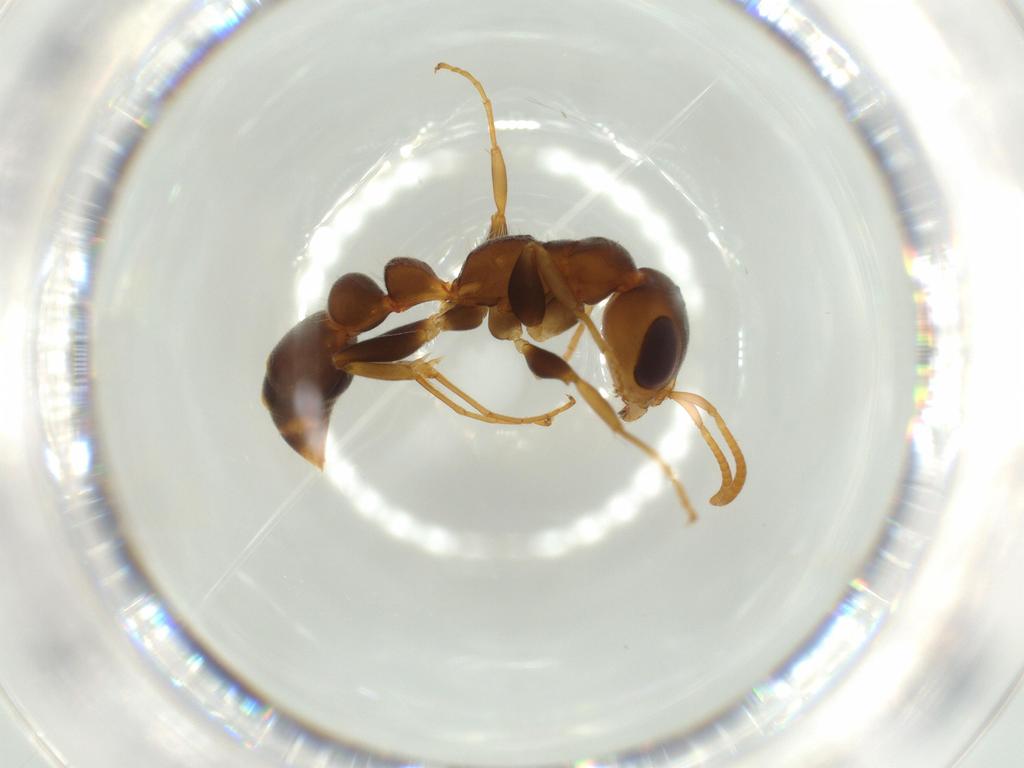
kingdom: Animalia
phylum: Arthropoda
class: Insecta
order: Hymenoptera
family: Formicidae
